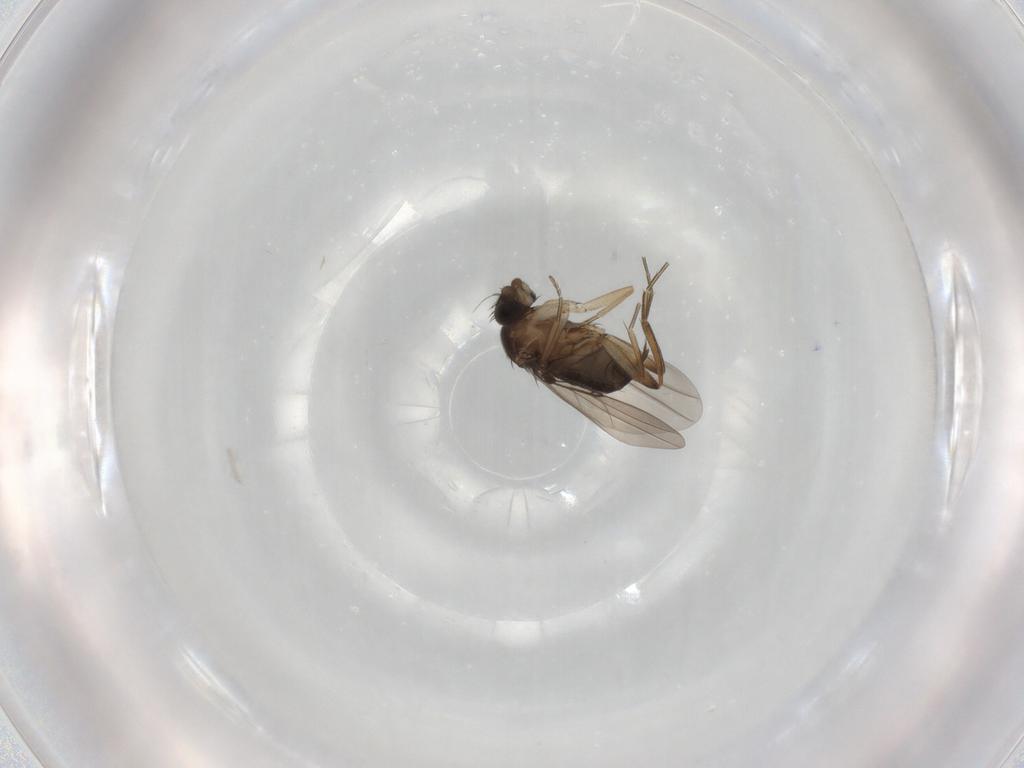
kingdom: Animalia
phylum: Arthropoda
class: Insecta
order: Diptera
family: Phoridae
